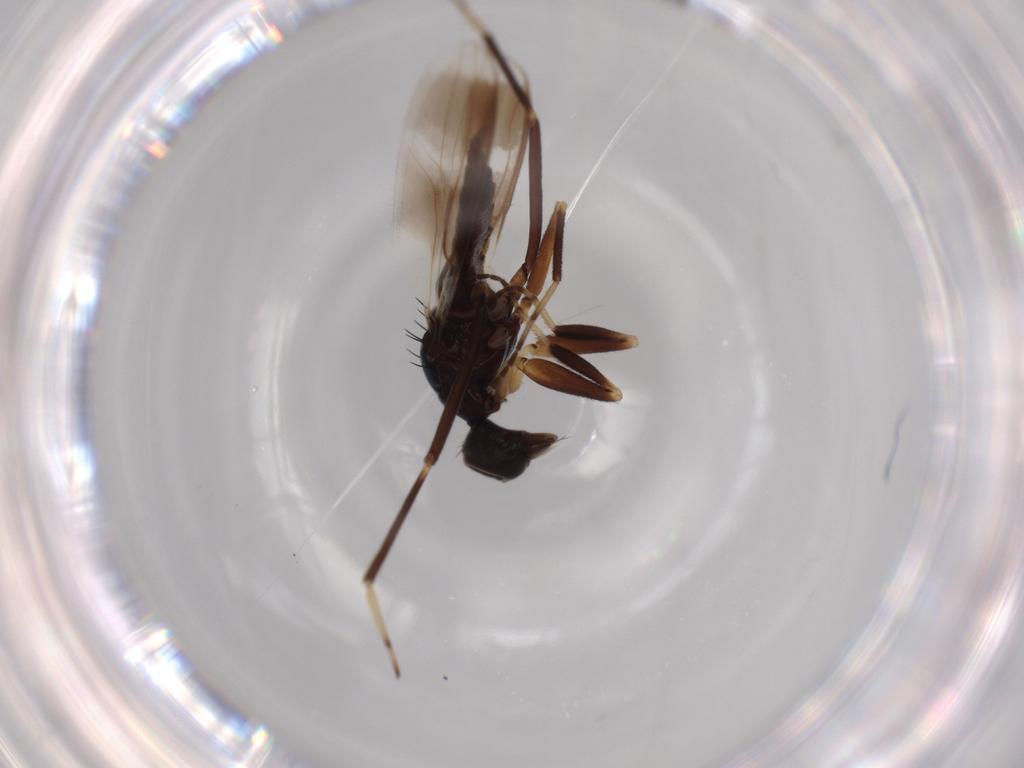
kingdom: Animalia
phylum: Arthropoda
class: Insecta
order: Diptera
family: Hybotidae
